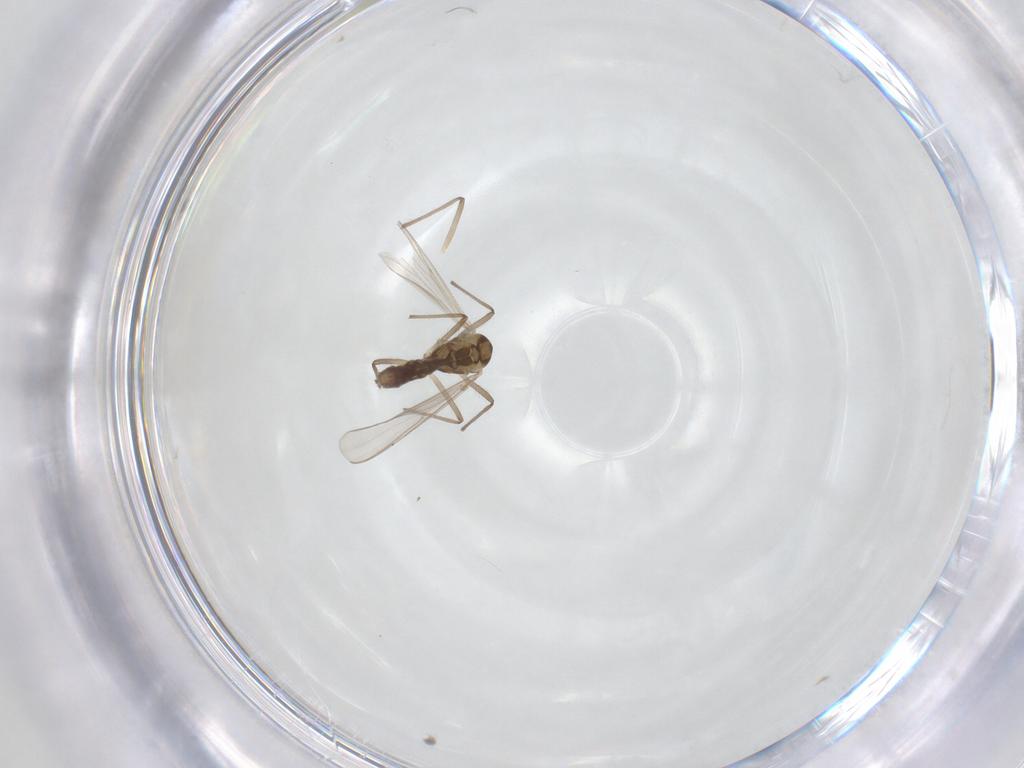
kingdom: Animalia
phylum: Arthropoda
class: Insecta
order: Diptera
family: Chironomidae
